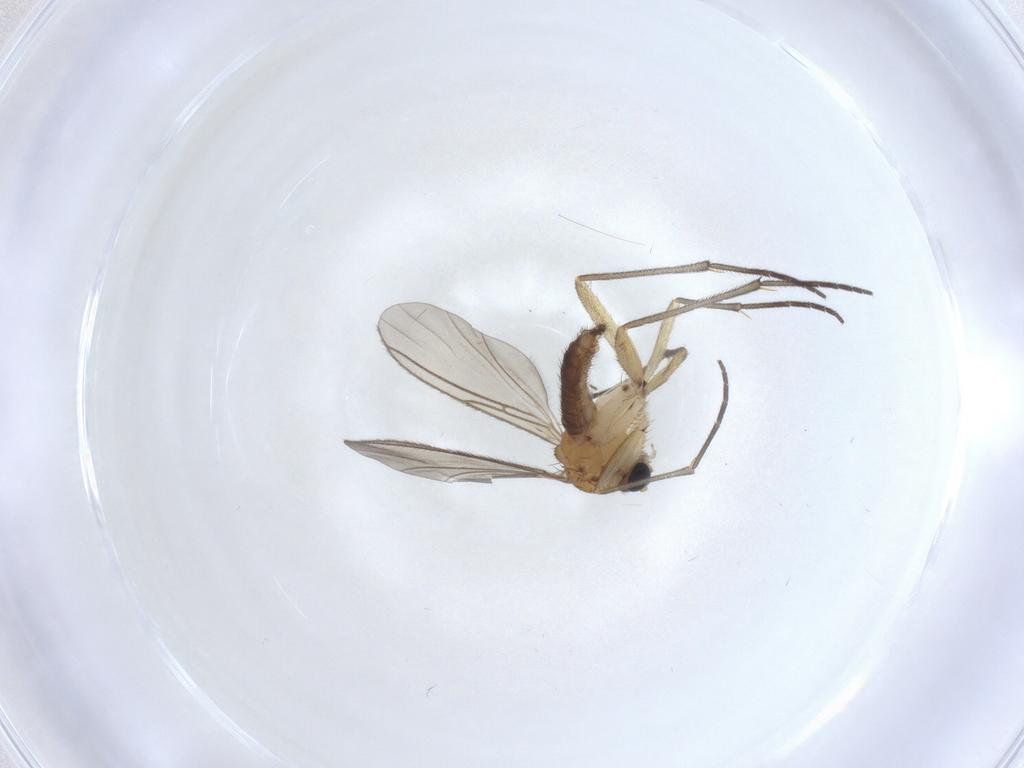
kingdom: Animalia
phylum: Arthropoda
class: Insecta
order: Diptera
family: Sciaridae
